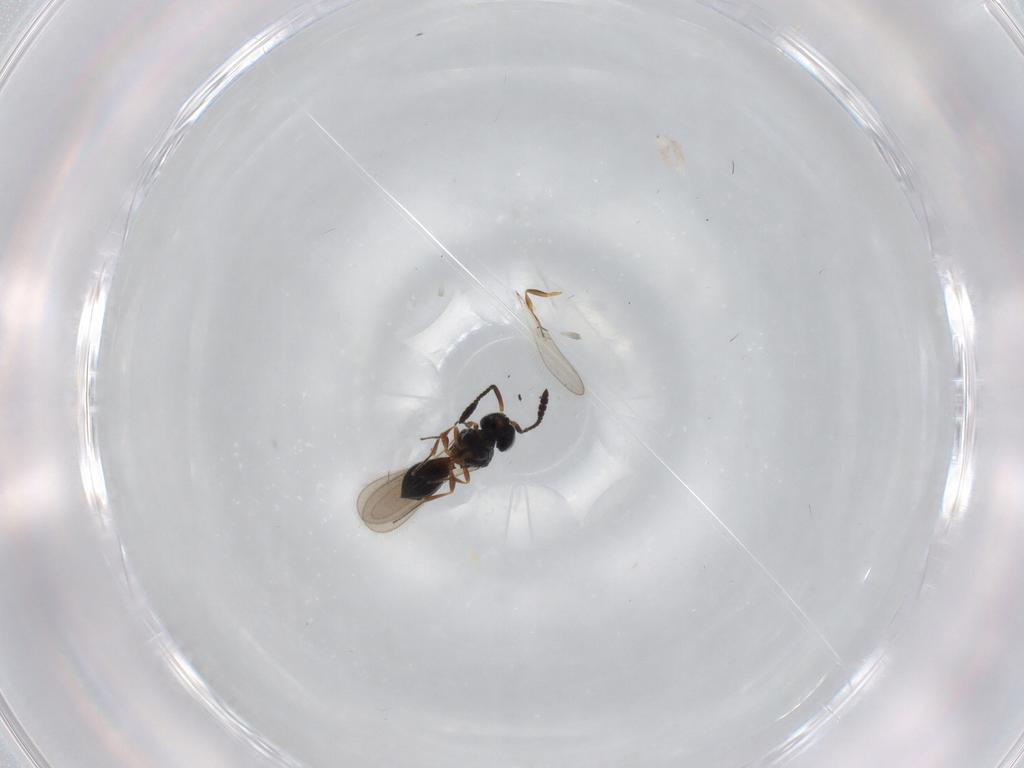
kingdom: Animalia
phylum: Arthropoda
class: Insecta
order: Hymenoptera
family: Scelionidae
